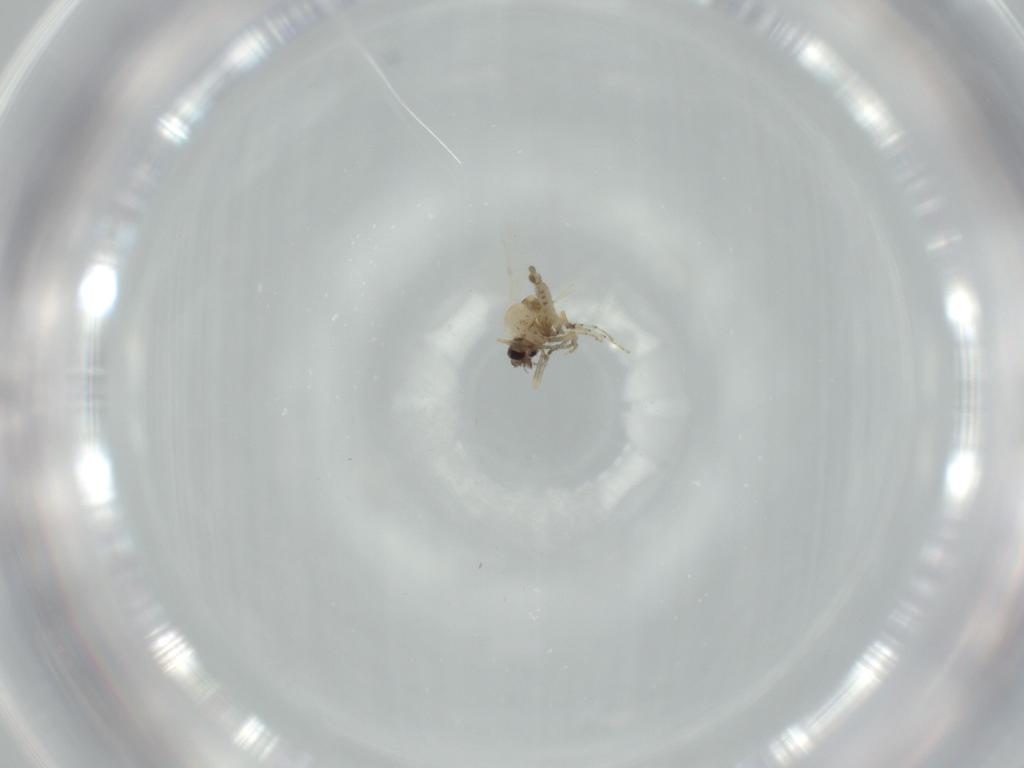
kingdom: Animalia
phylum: Arthropoda
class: Insecta
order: Diptera
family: Ceratopogonidae
